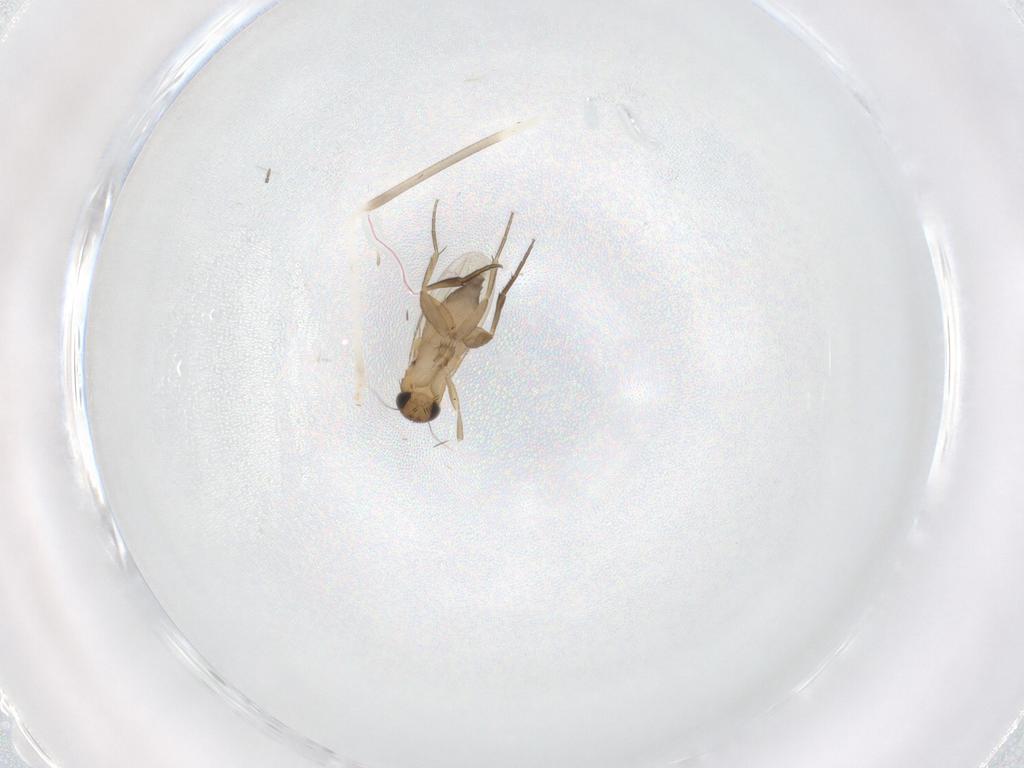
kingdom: Animalia
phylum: Arthropoda
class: Insecta
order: Diptera
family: Cecidomyiidae
